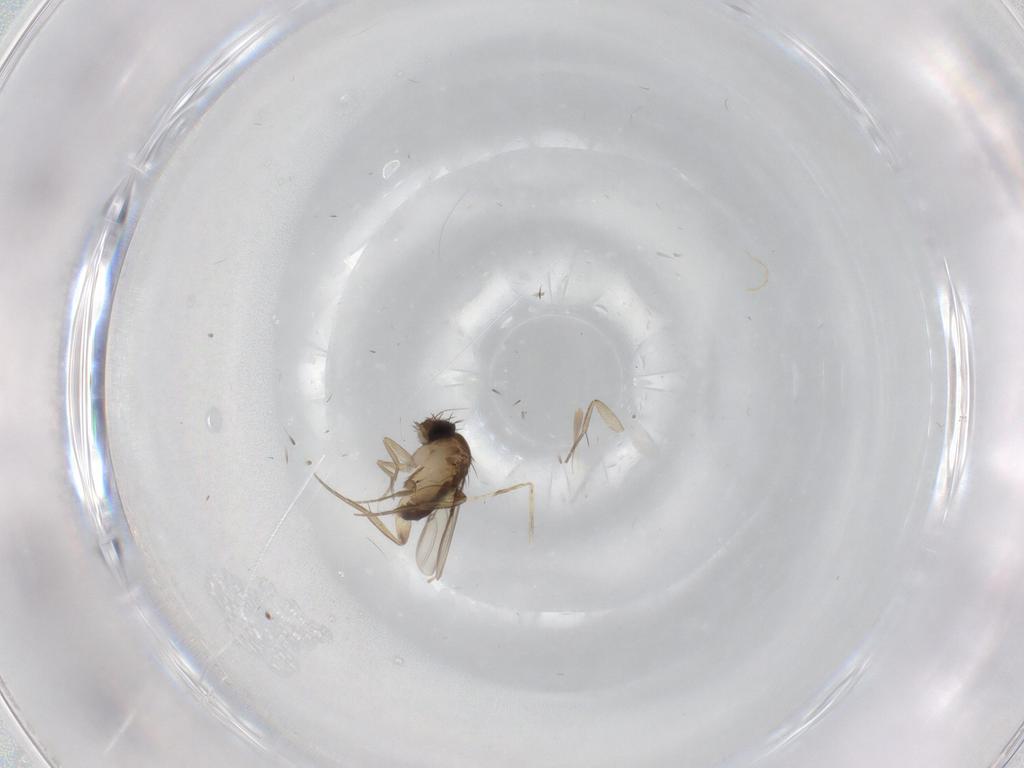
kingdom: Animalia
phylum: Arthropoda
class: Insecta
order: Diptera
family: Phoridae
